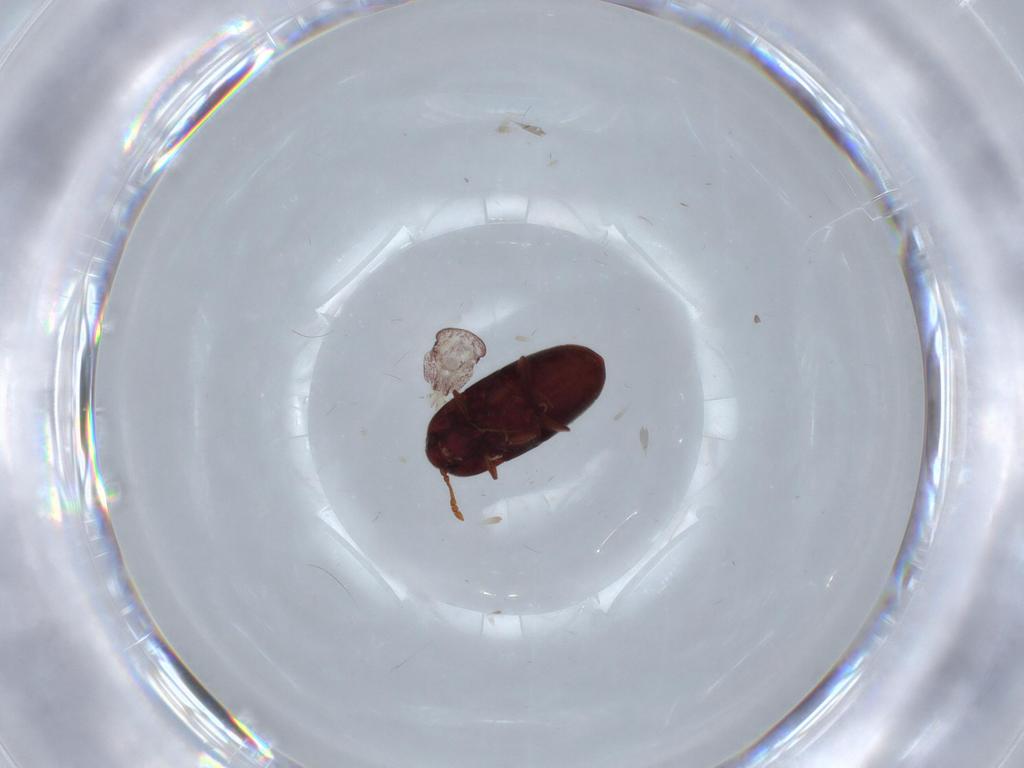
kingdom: Animalia
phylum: Arthropoda
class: Insecta
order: Coleoptera
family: Throscidae
